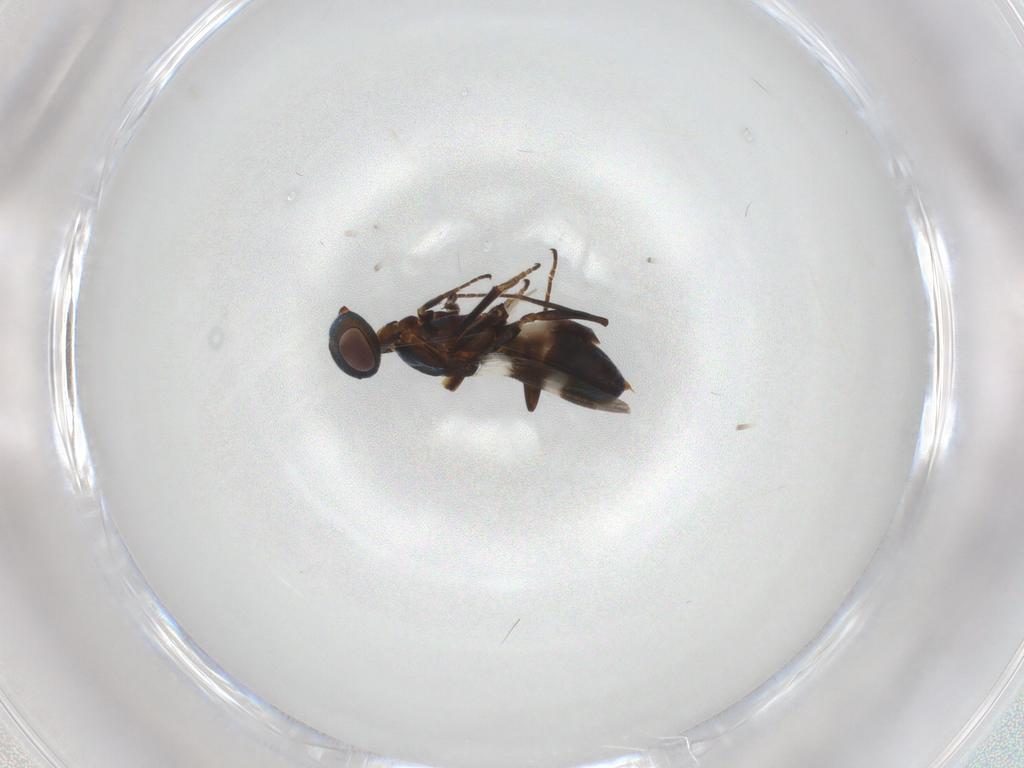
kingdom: Animalia
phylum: Arthropoda
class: Insecta
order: Hymenoptera
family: Eupelmidae
